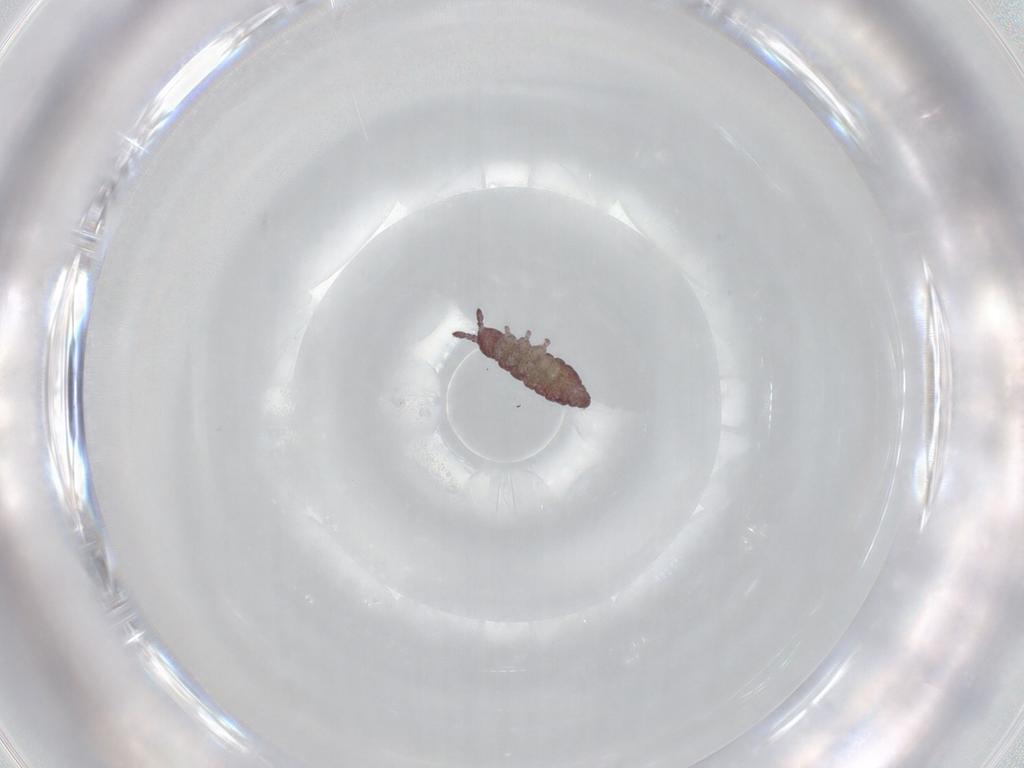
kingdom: Animalia
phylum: Arthropoda
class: Collembola
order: Poduromorpha
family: Hypogastruridae
